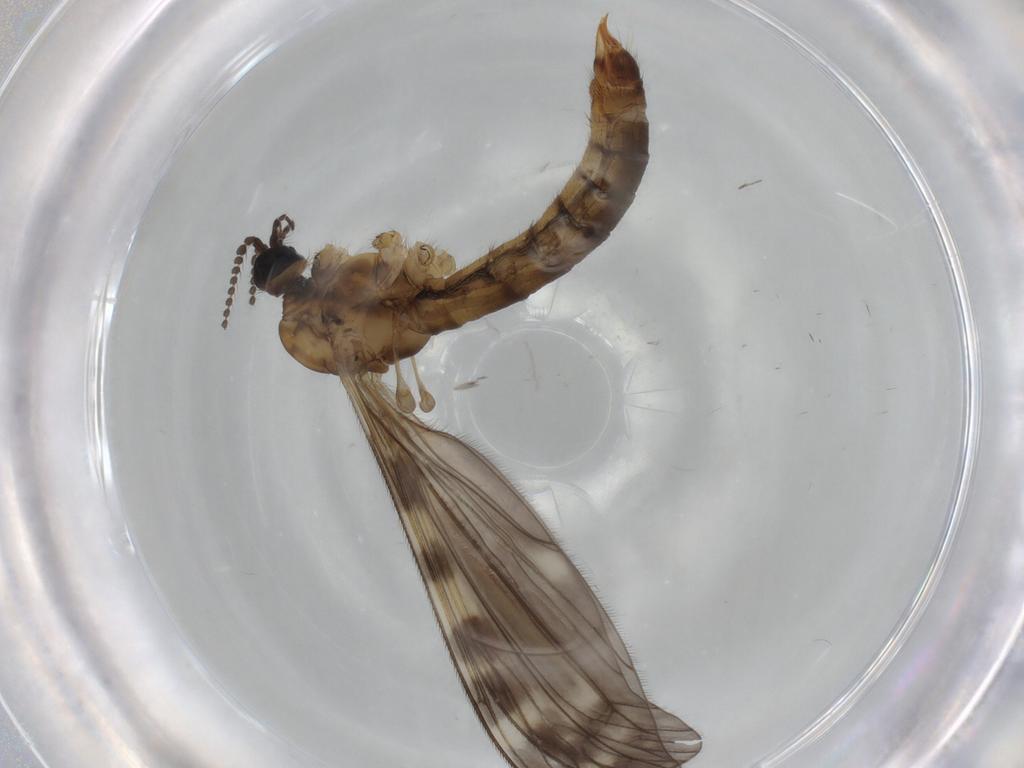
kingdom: Animalia
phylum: Arthropoda
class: Insecta
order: Diptera
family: Limoniidae
